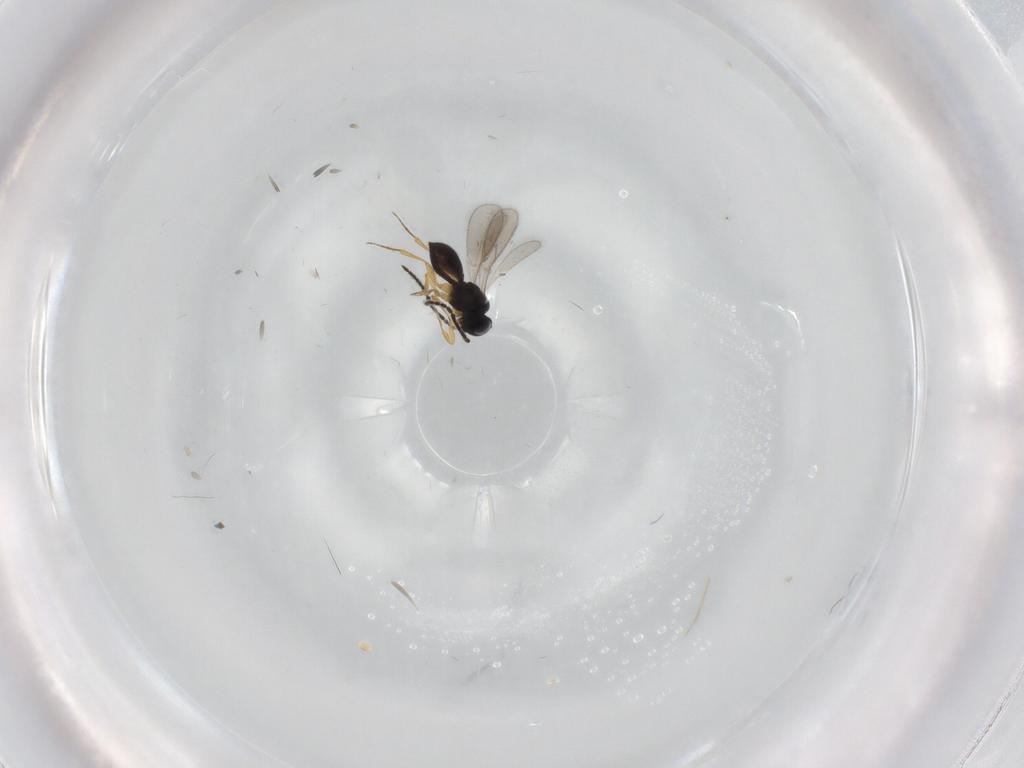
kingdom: Animalia
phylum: Arthropoda
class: Insecta
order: Hymenoptera
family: Scelionidae
